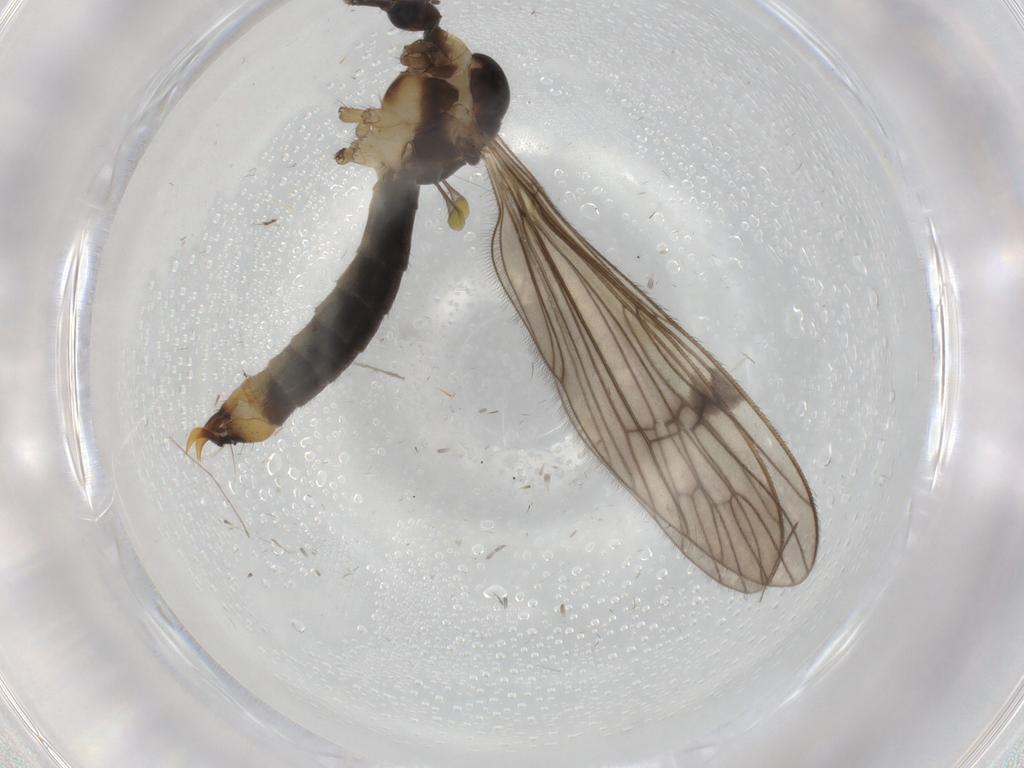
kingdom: Animalia
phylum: Arthropoda
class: Insecta
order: Diptera
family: Limoniidae
